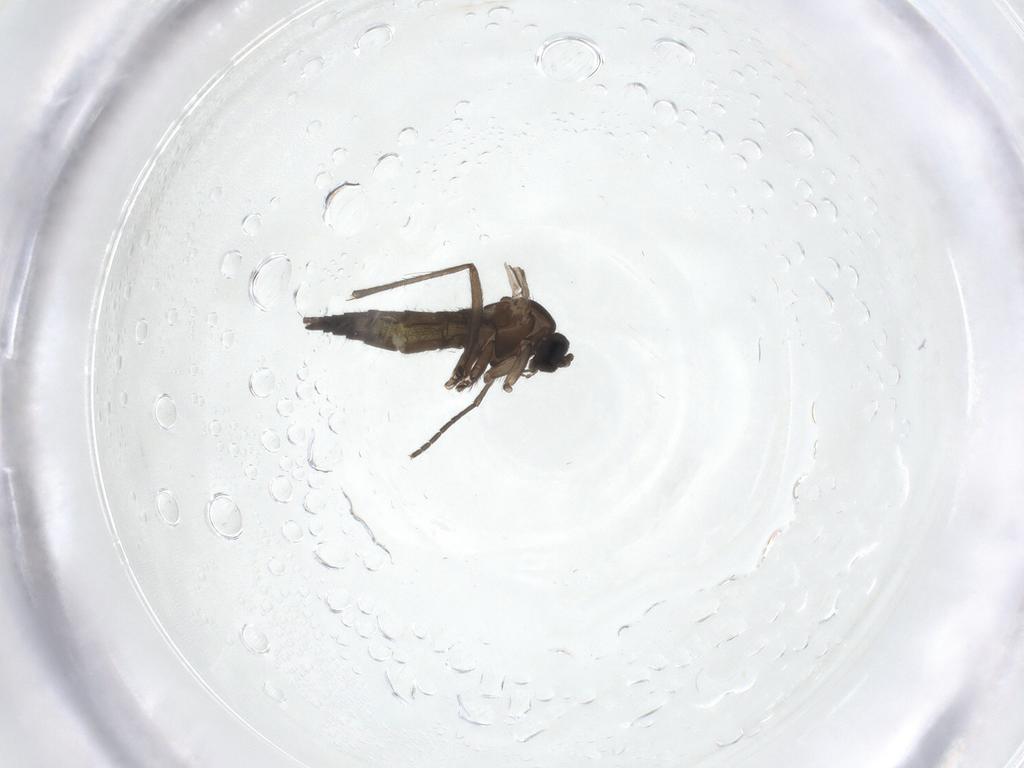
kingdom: Animalia
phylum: Arthropoda
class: Insecta
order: Diptera
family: Sciaridae
